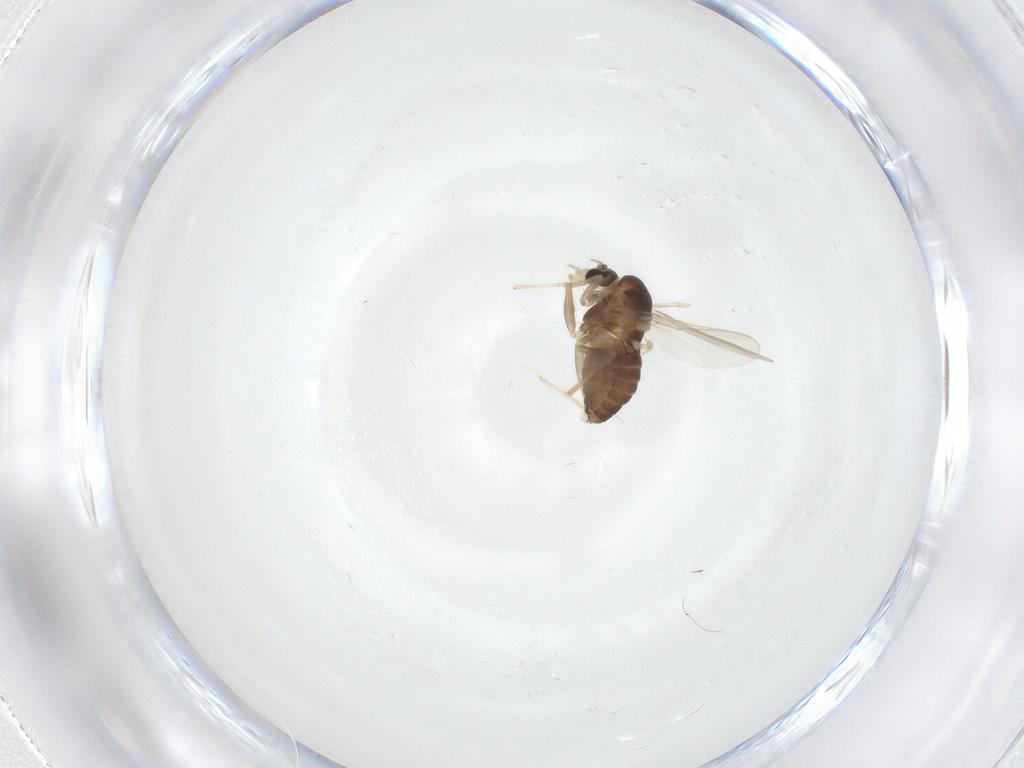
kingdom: Animalia
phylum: Arthropoda
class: Insecta
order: Diptera
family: Chironomidae
